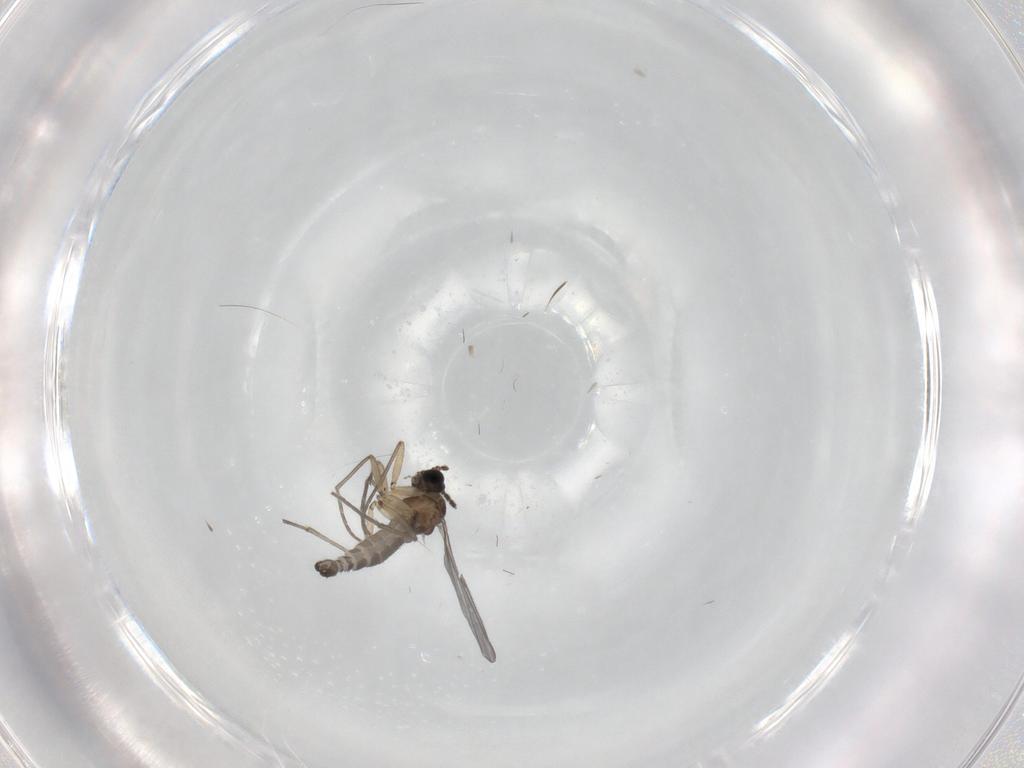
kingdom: Animalia
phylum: Arthropoda
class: Insecta
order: Diptera
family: Sciaridae
